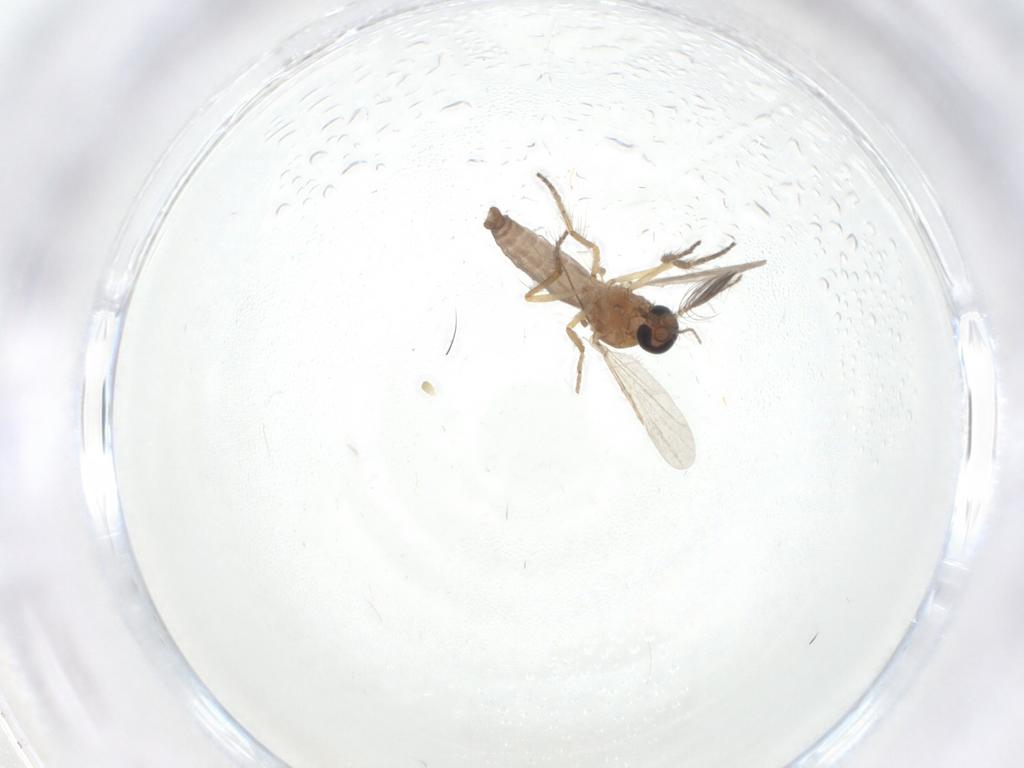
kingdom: Animalia
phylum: Arthropoda
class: Insecta
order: Diptera
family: Ceratopogonidae
